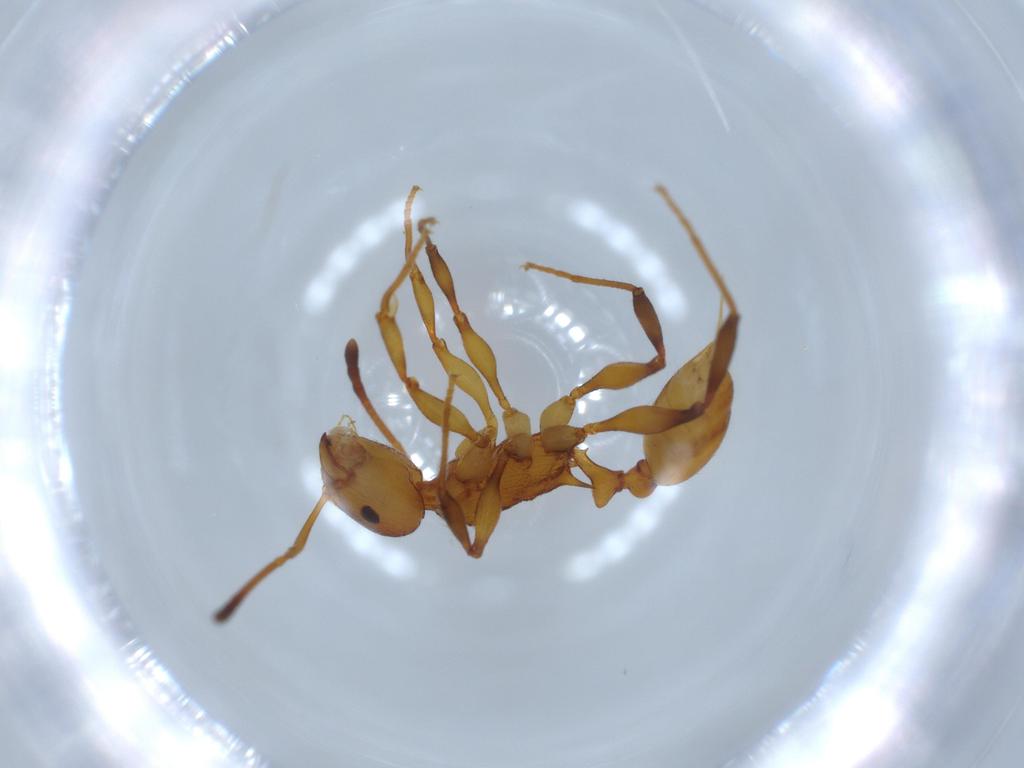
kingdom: Animalia
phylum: Arthropoda
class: Insecta
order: Hymenoptera
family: Formicidae
